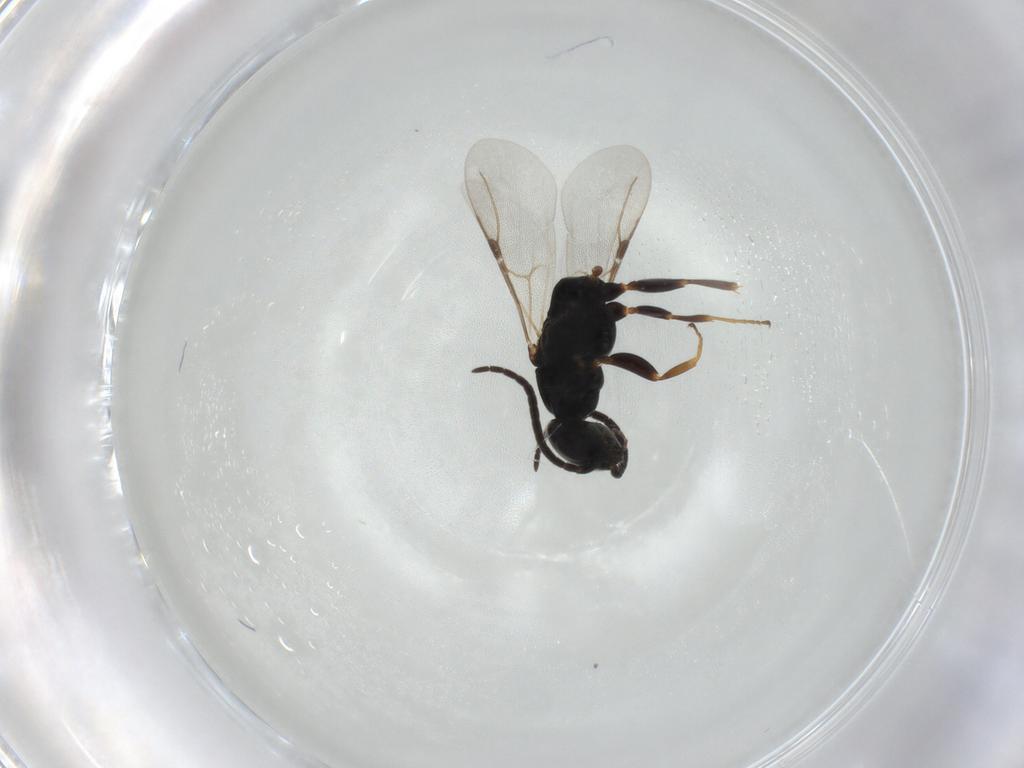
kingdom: Animalia
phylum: Arthropoda
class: Insecta
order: Hymenoptera
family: Bethylidae
